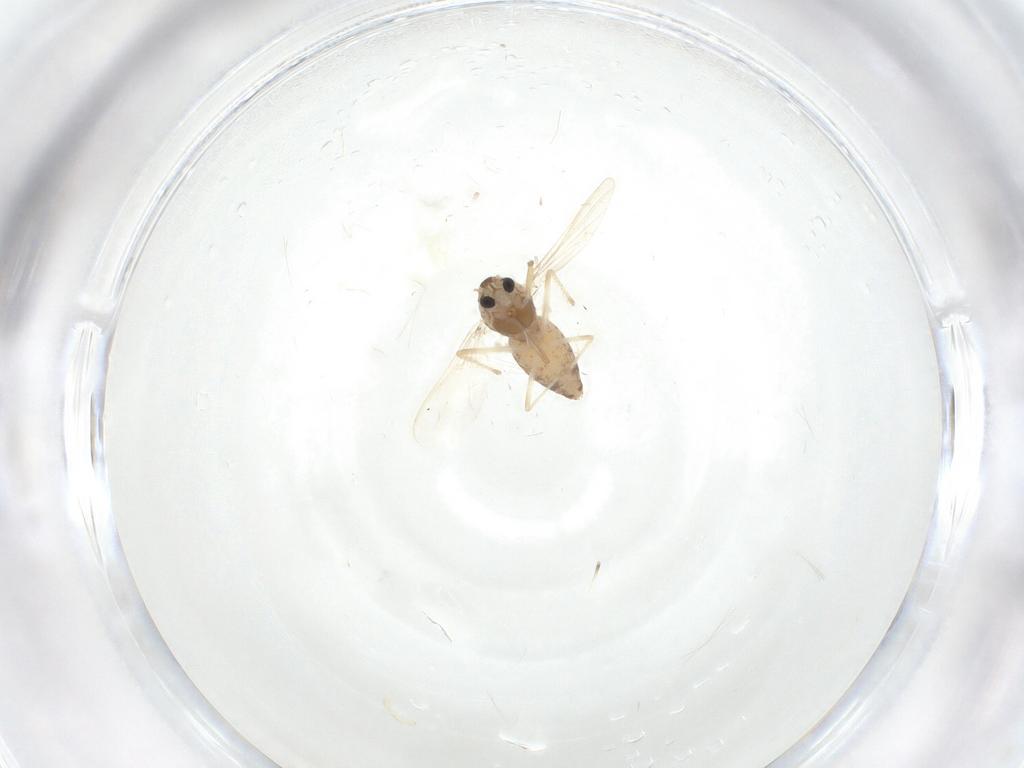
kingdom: Animalia
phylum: Arthropoda
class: Insecta
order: Diptera
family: Chironomidae
